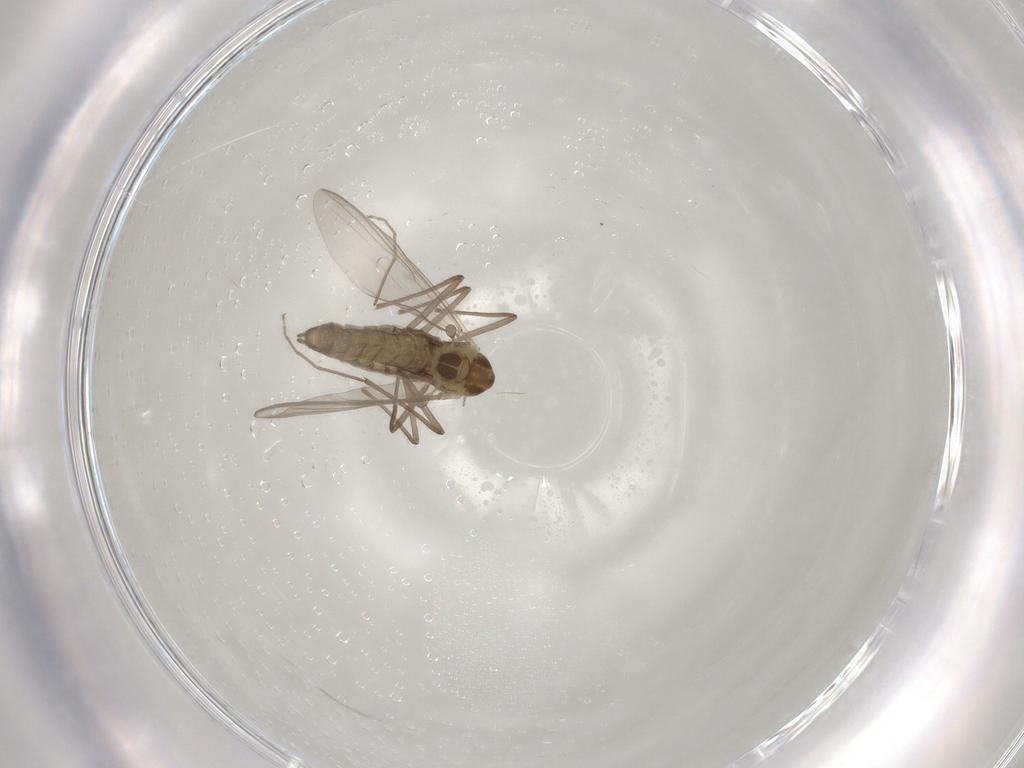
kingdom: Animalia
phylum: Arthropoda
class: Insecta
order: Diptera
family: Chironomidae
